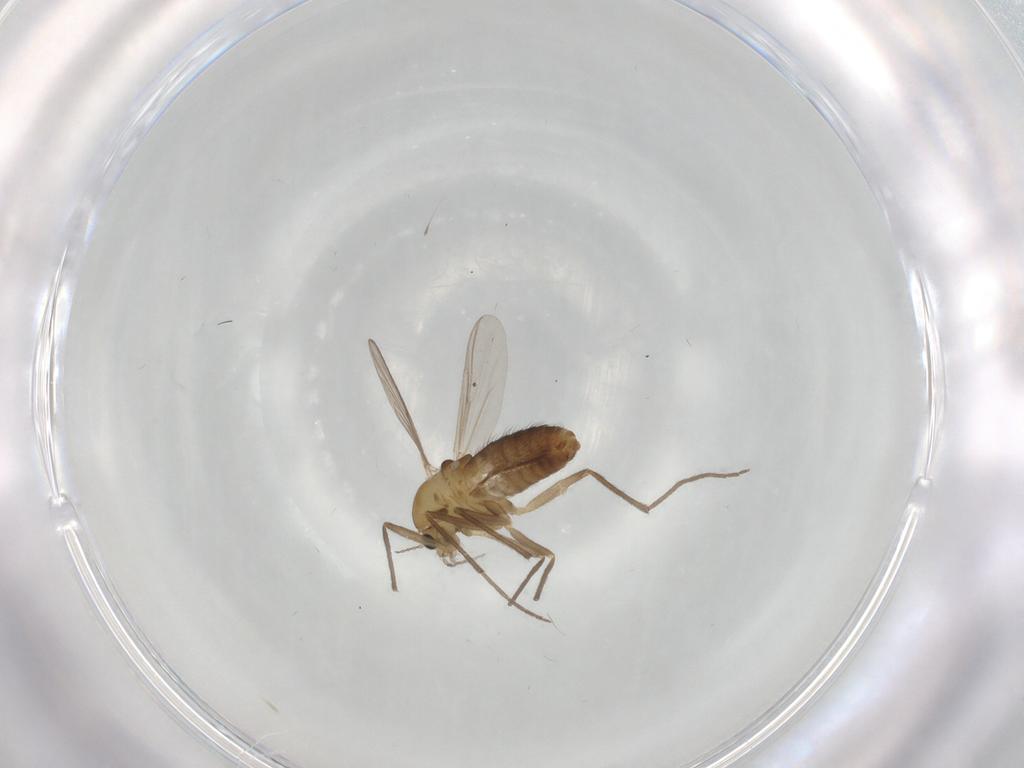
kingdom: Animalia
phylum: Arthropoda
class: Insecta
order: Diptera
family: Chironomidae
